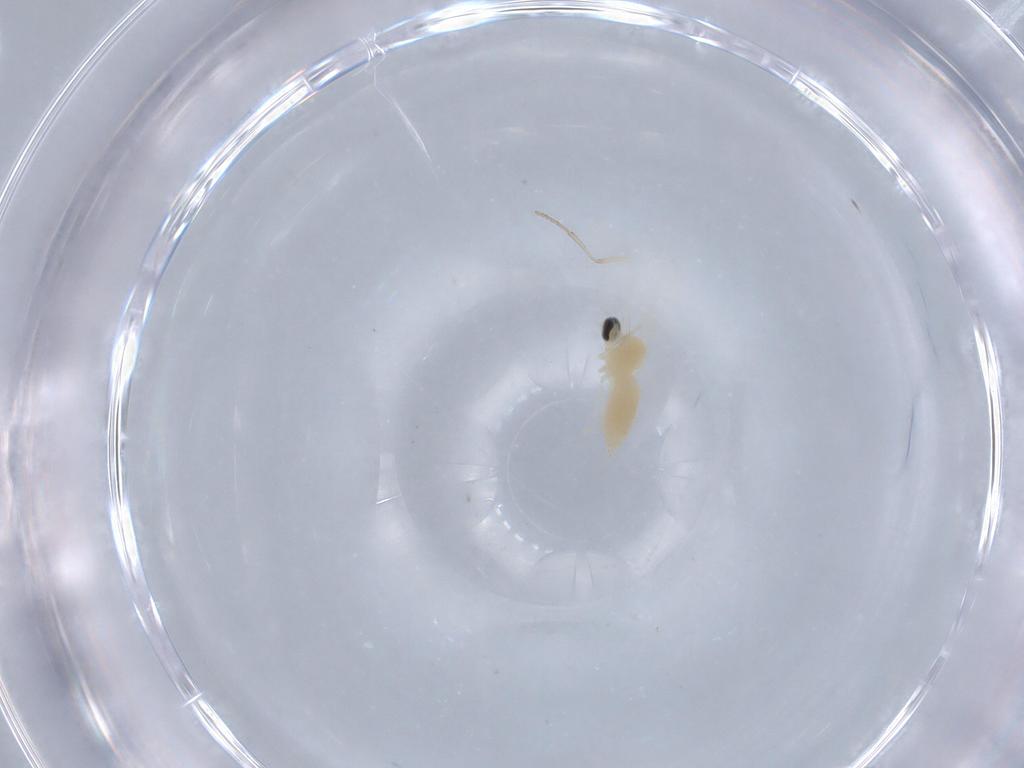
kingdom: Animalia
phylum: Arthropoda
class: Insecta
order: Diptera
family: Cecidomyiidae
